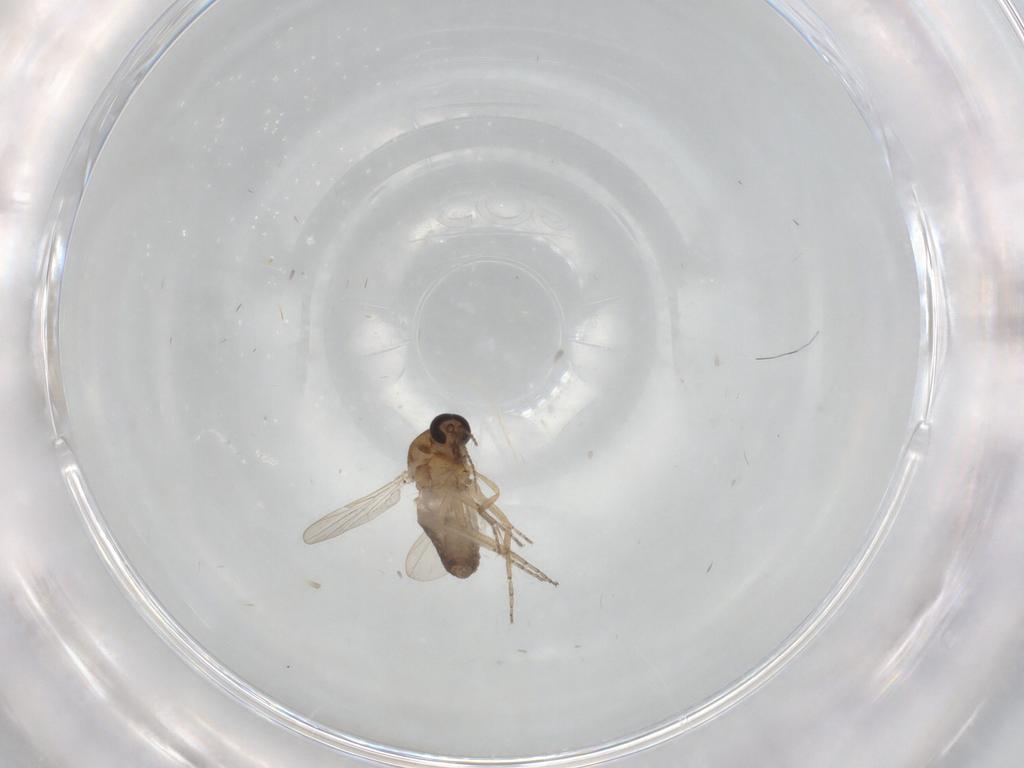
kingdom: Animalia
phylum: Arthropoda
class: Insecta
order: Diptera
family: Ceratopogonidae
